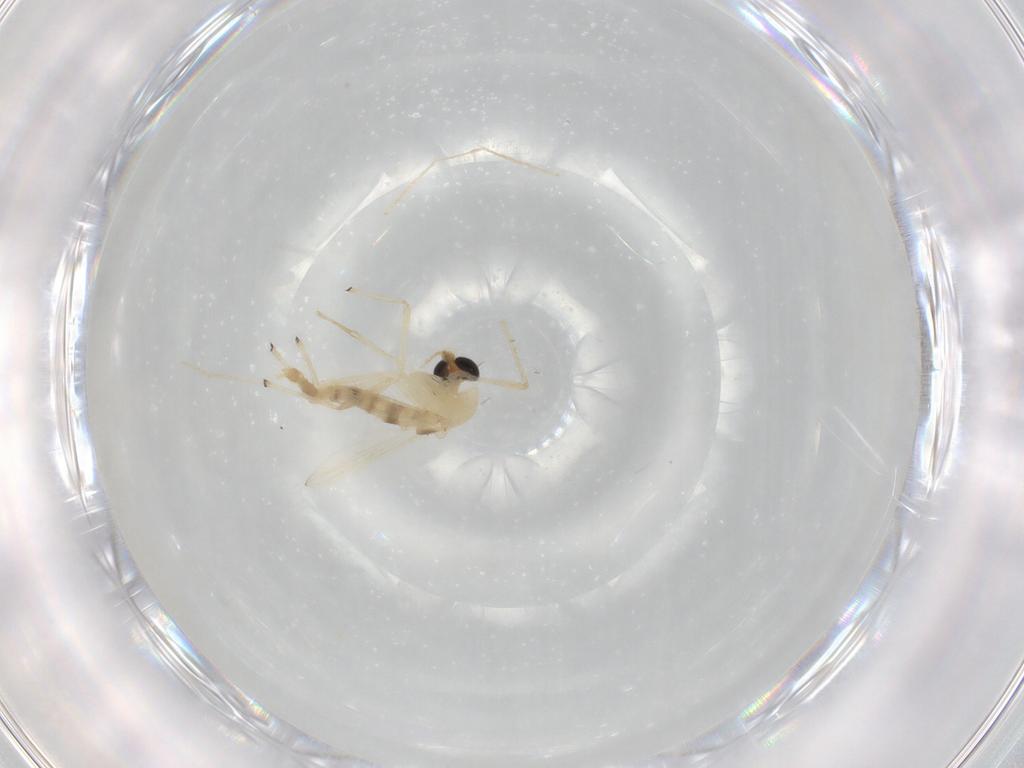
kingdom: Animalia
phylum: Arthropoda
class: Insecta
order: Diptera
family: Chironomidae
